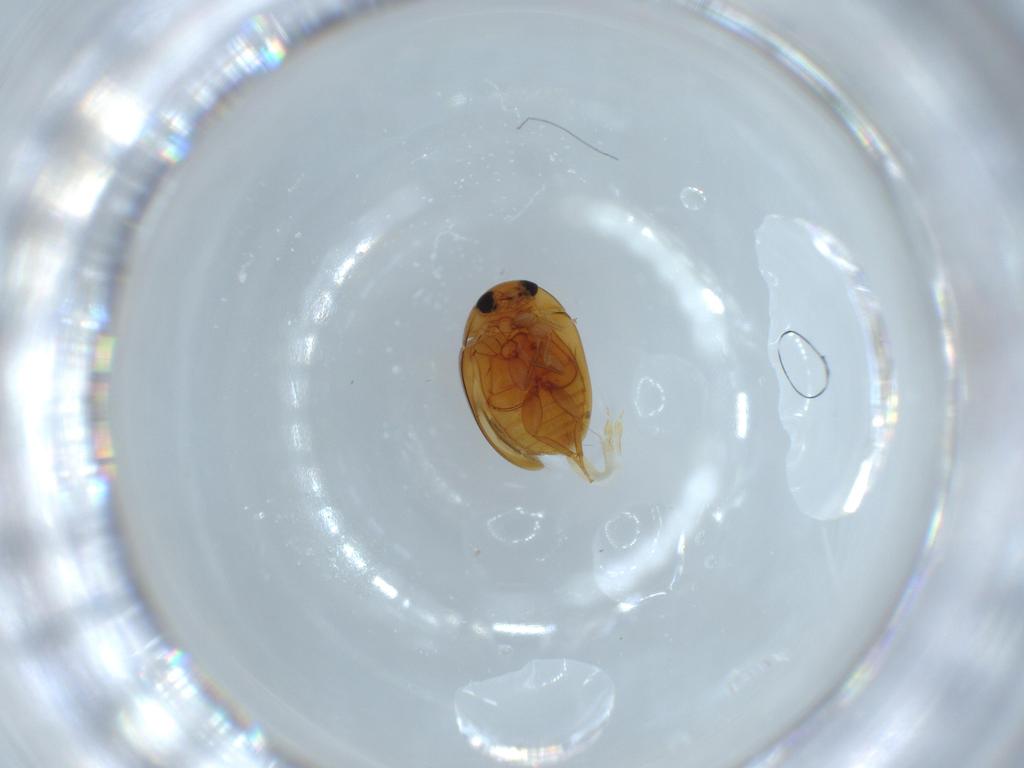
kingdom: Animalia
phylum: Arthropoda
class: Insecta
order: Coleoptera
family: Phalacridae
